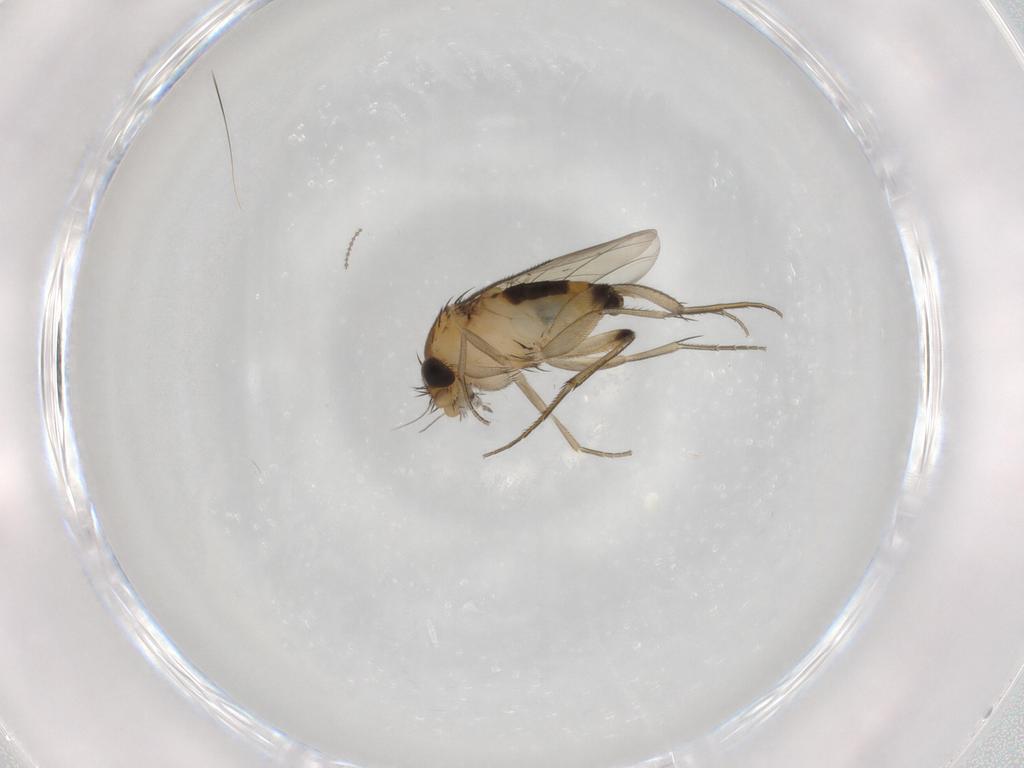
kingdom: Animalia
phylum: Arthropoda
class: Insecta
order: Diptera
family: Phoridae
